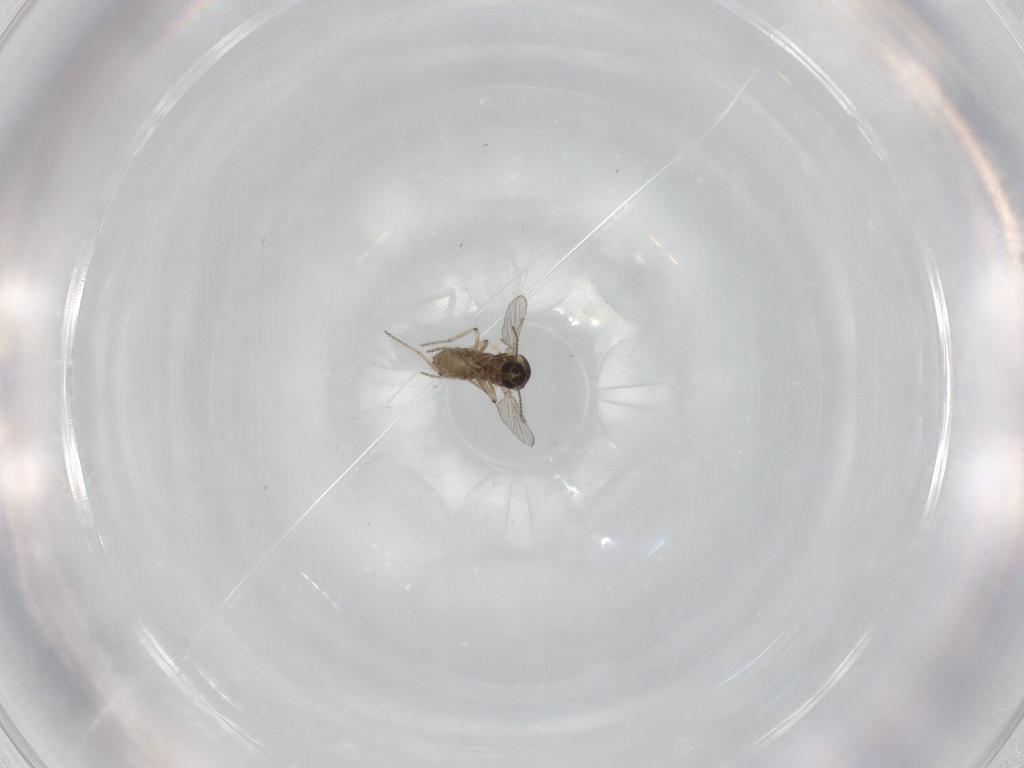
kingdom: Animalia
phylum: Arthropoda
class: Insecta
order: Diptera
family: Ceratopogonidae
